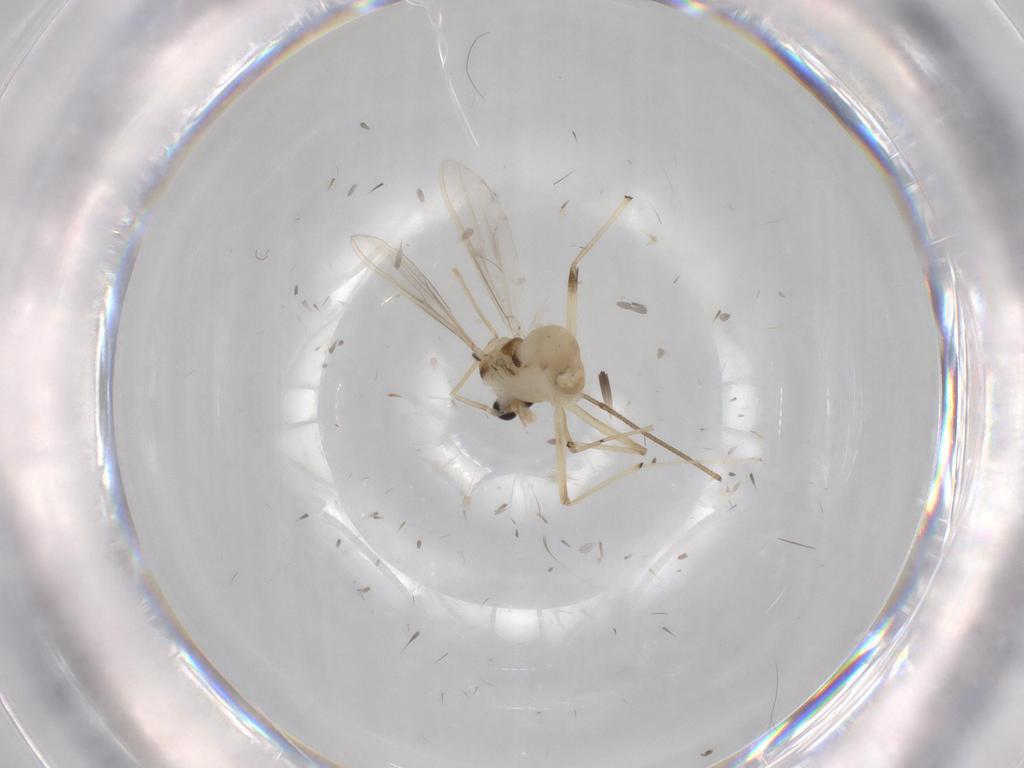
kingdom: Animalia
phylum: Arthropoda
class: Insecta
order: Diptera
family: Chironomidae
